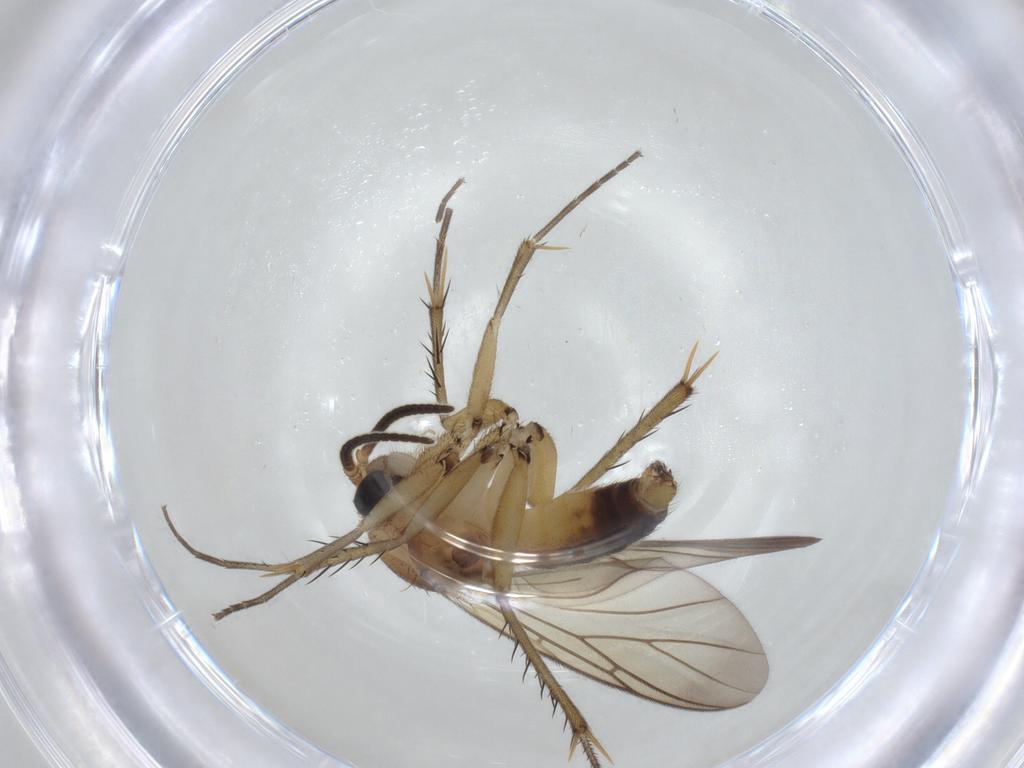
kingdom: Animalia
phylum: Arthropoda
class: Insecta
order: Diptera
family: Mycetophilidae
